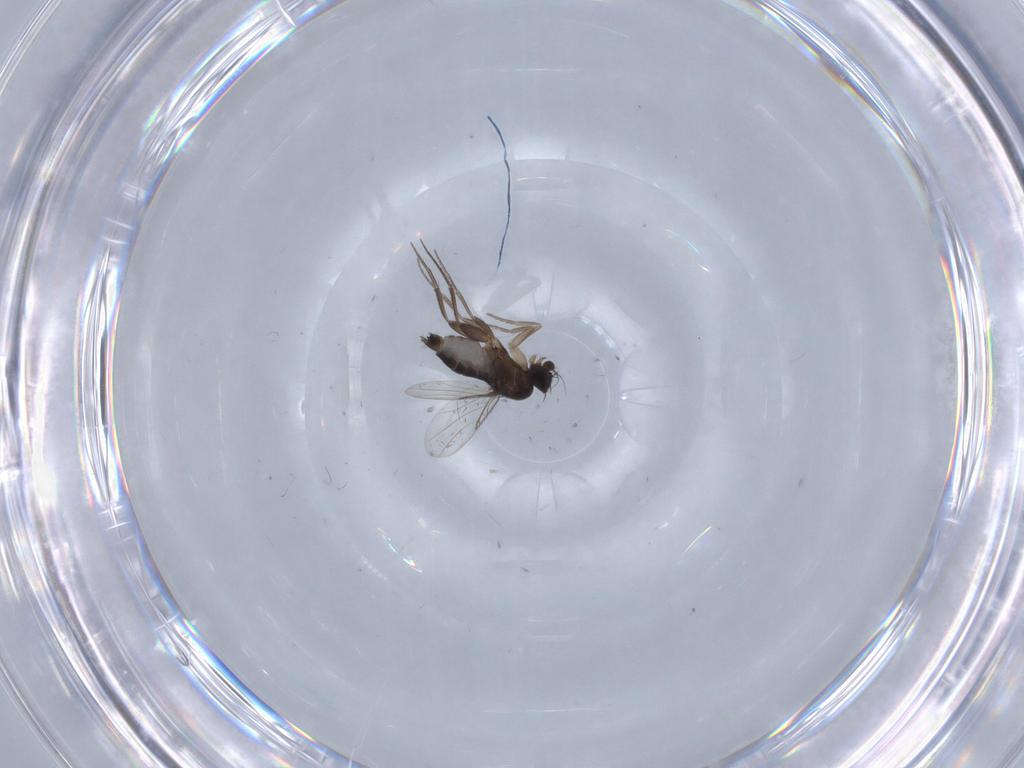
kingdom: Animalia
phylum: Arthropoda
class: Insecta
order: Diptera
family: Phoridae
